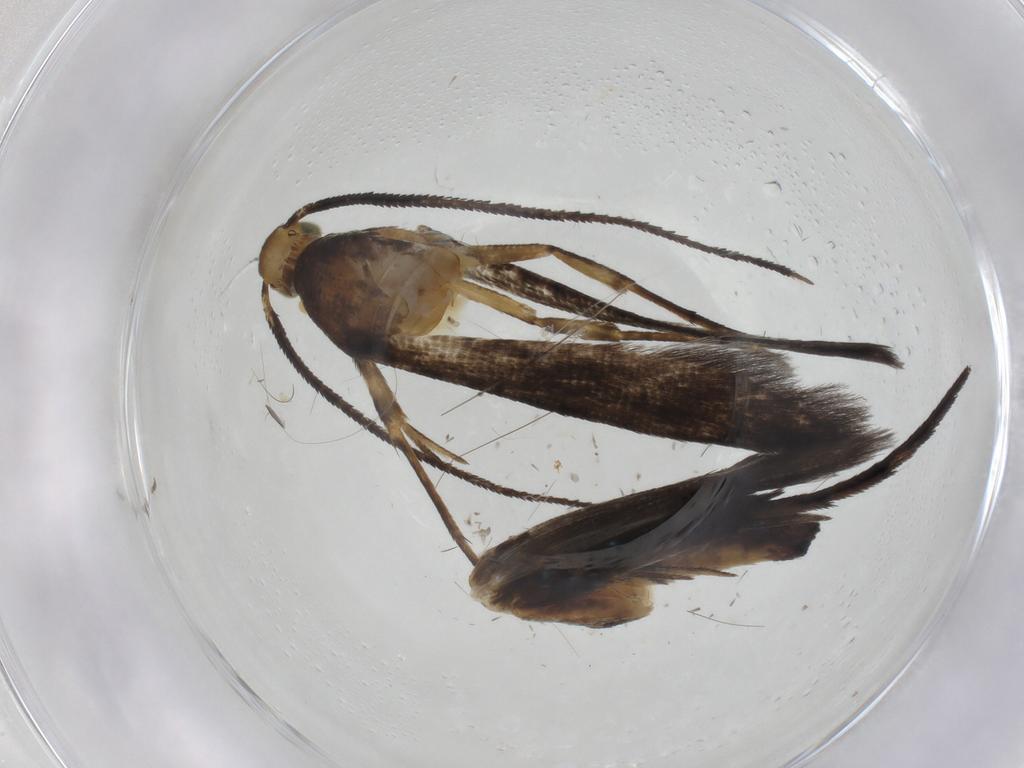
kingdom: Animalia
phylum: Arthropoda
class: Insecta
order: Lepidoptera
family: Heliodinidae
